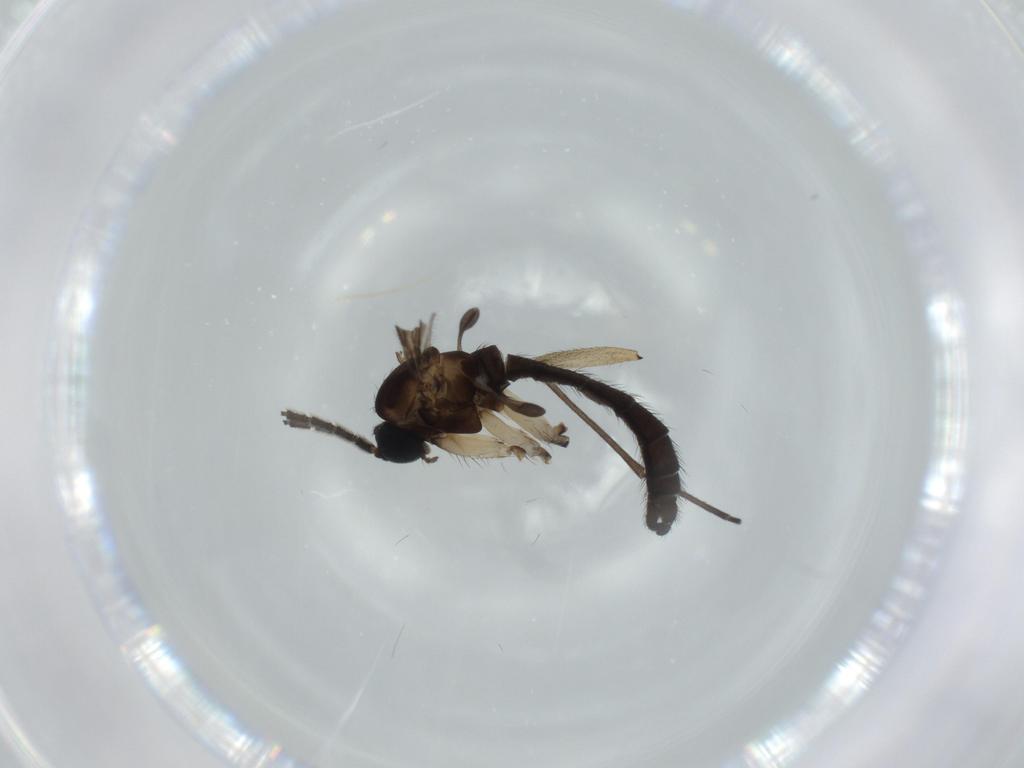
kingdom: Animalia
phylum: Arthropoda
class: Insecta
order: Diptera
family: Sciaridae
